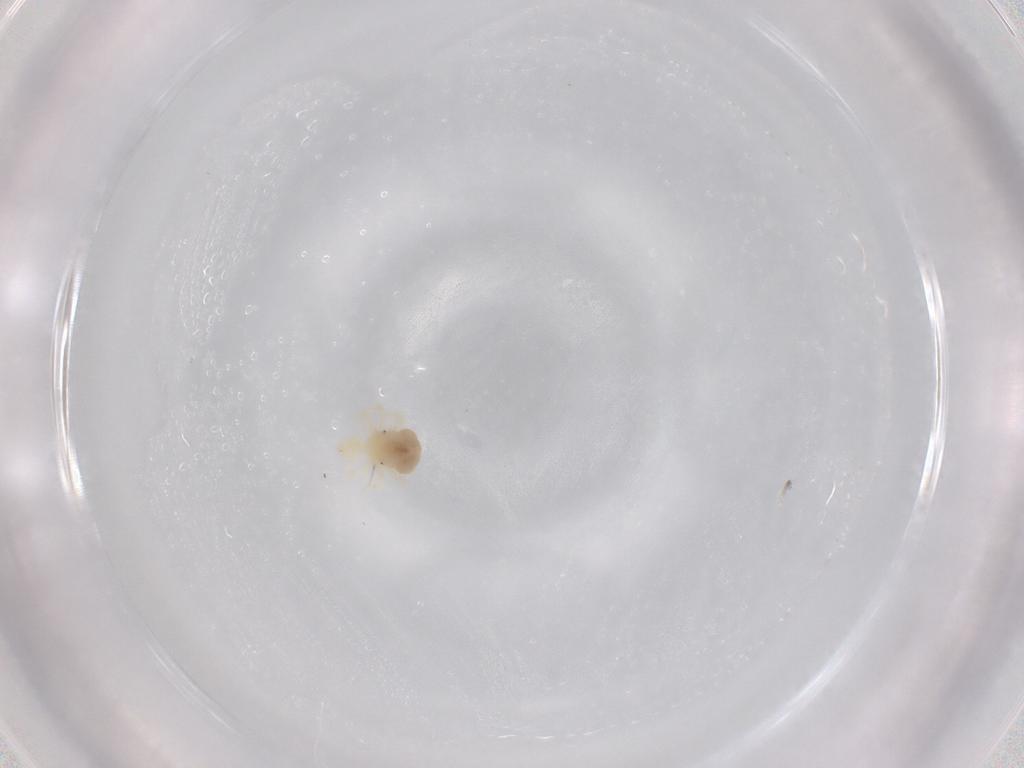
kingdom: Animalia
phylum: Arthropoda
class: Arachnida
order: Trombidiformes
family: Anystidae
